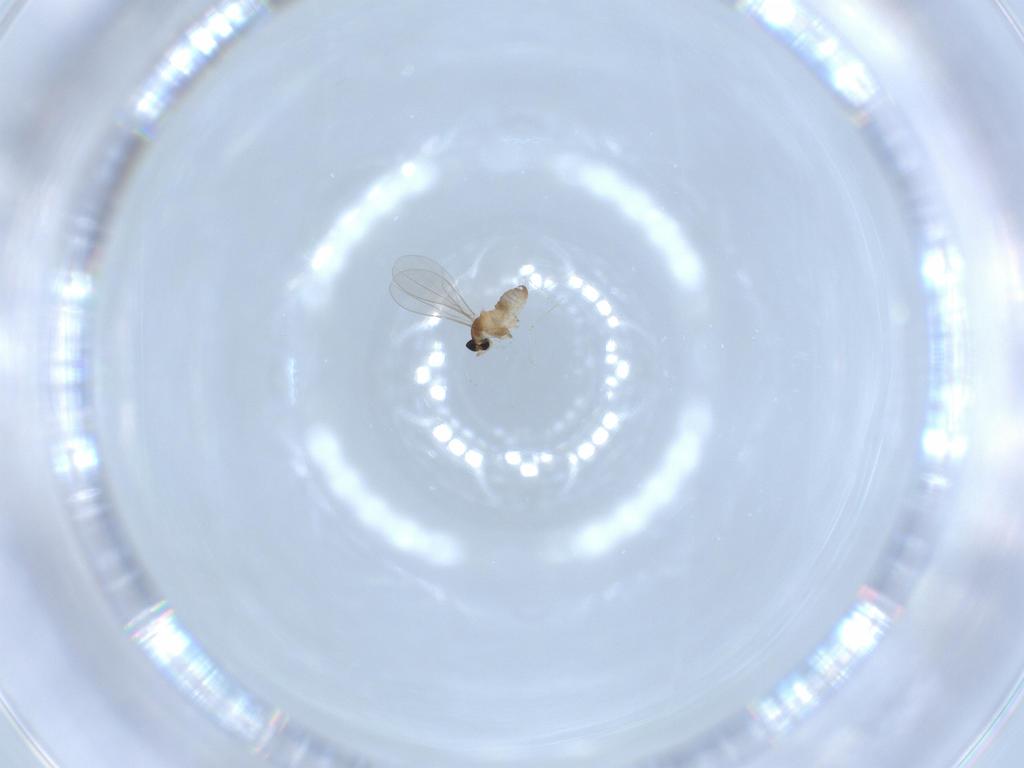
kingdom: Animalia
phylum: Arthropoda
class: Insecta
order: Diptera
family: Cecidomyiidae
